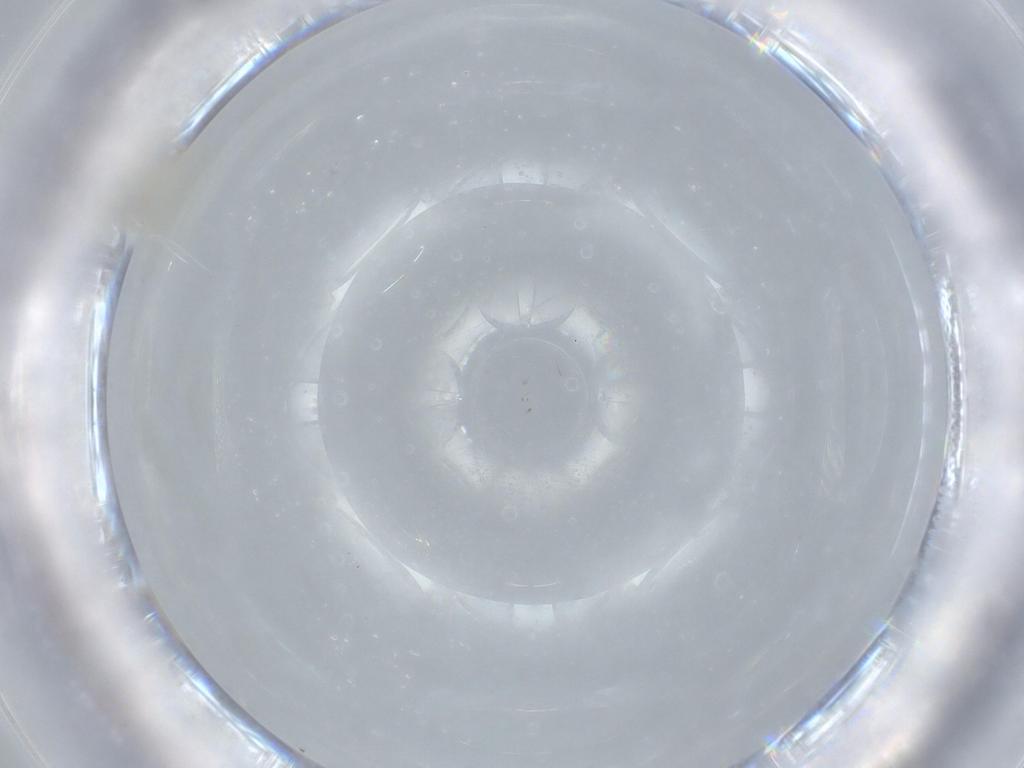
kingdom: Animalia
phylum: Arthropoda
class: Insecta
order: Psocodea
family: Caeciliusidae
